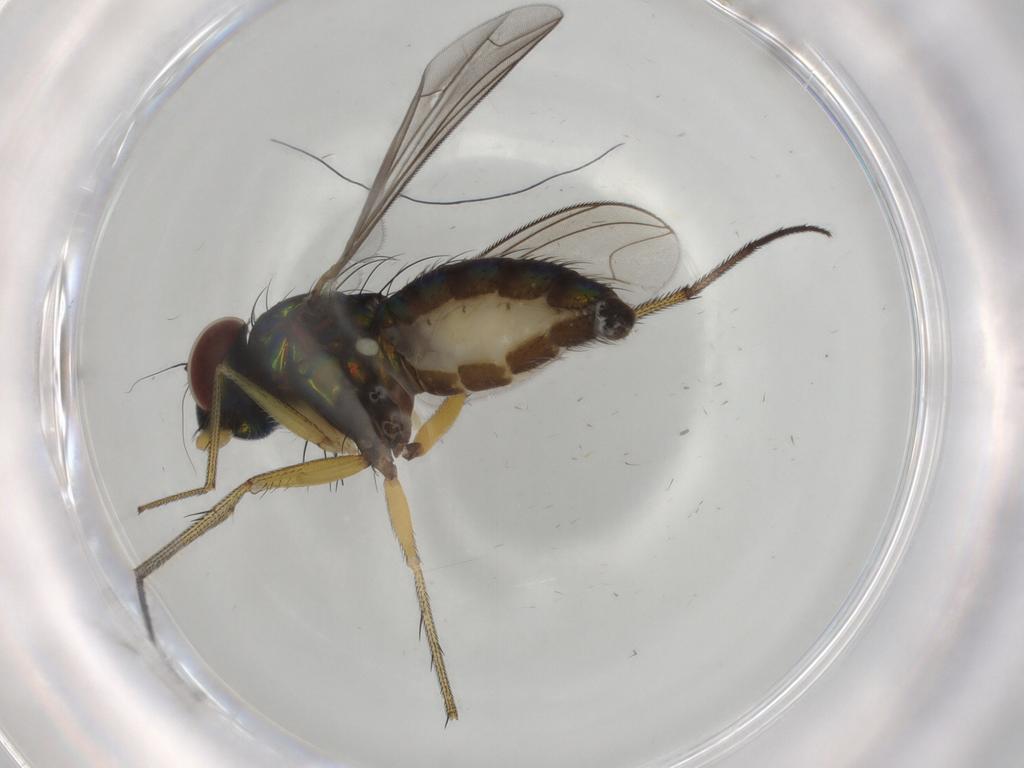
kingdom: Animalia
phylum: Arthropoda
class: Insecta
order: Diptera
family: Dolichopodidae
